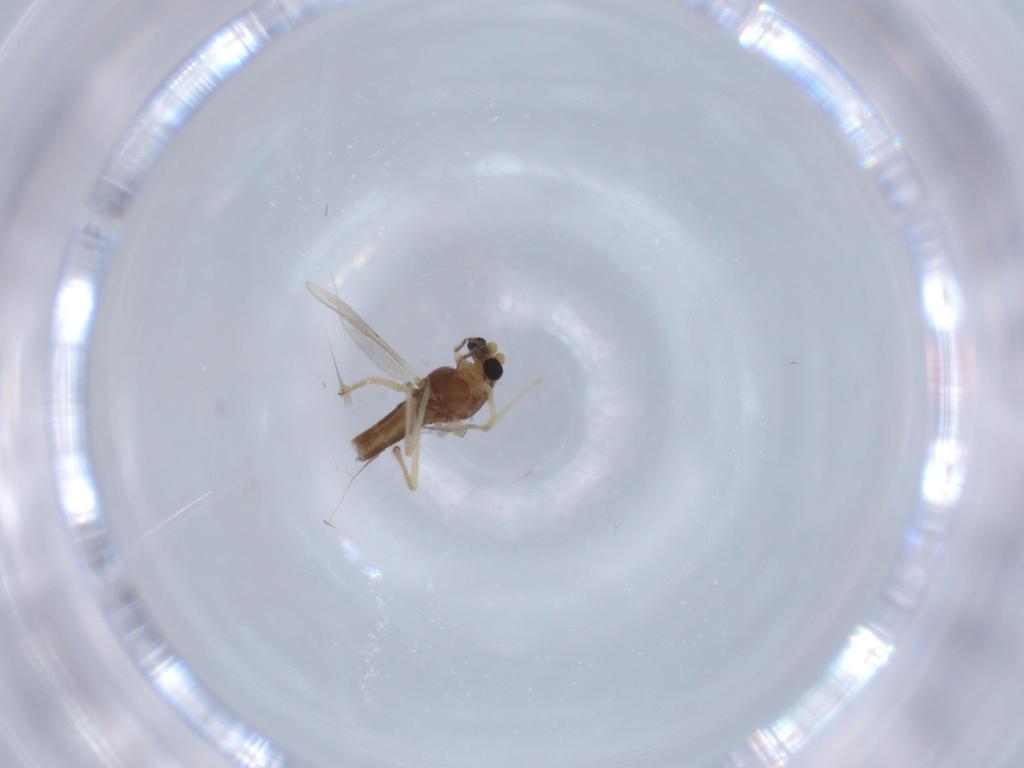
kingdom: Animalia
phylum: Arthropoda
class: Insecta
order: Diptera
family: Chironomidae
